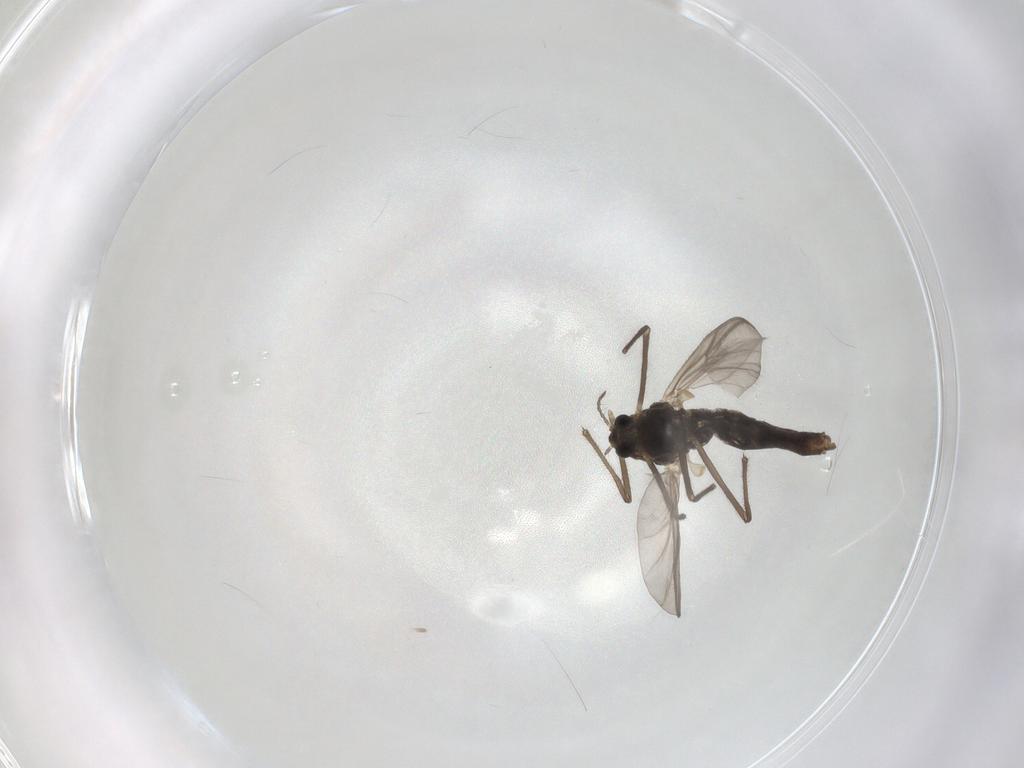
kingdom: Animalia
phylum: Arthropoda
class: Insecta
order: Diptera
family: Chironomidae
